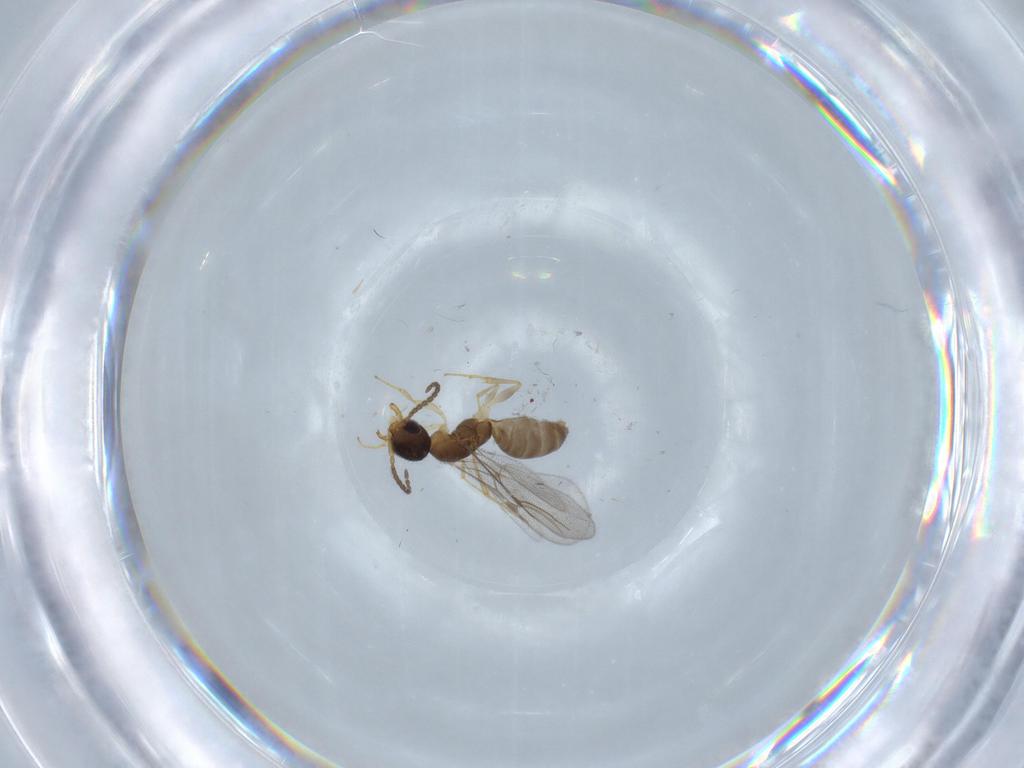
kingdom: Animalia
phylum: Arthropoda
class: Insecta
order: Hymenoptera
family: Bethylidae
